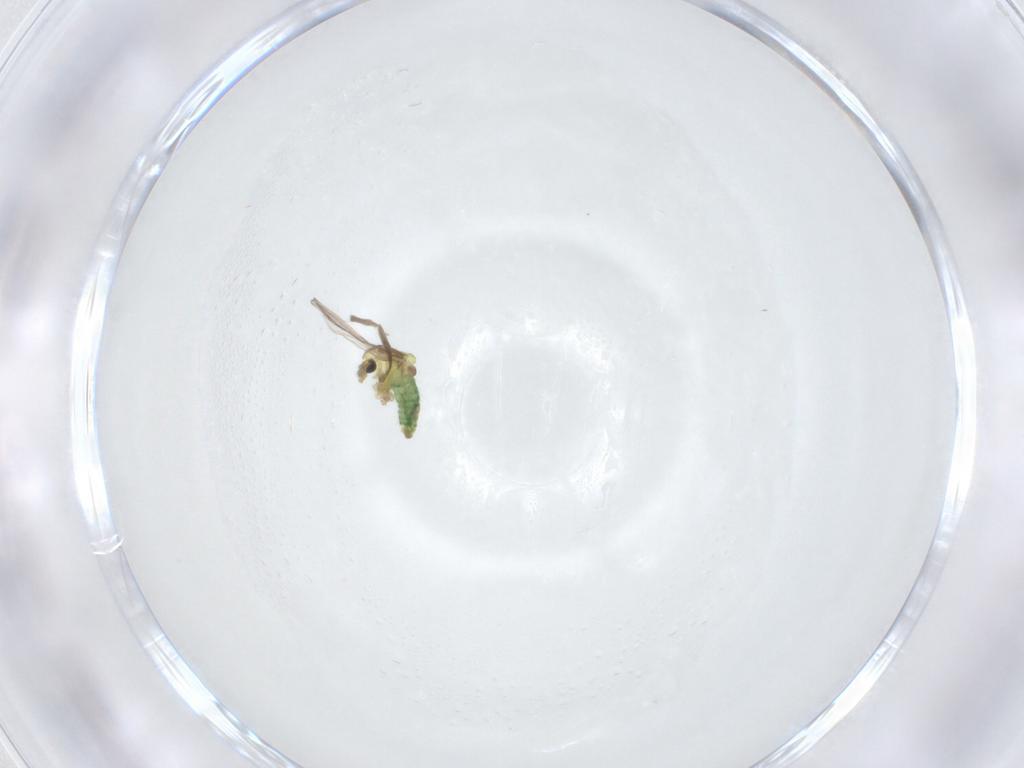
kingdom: Animalia
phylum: Arthropoda
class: Insecta
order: Diptera
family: Chironomidae
